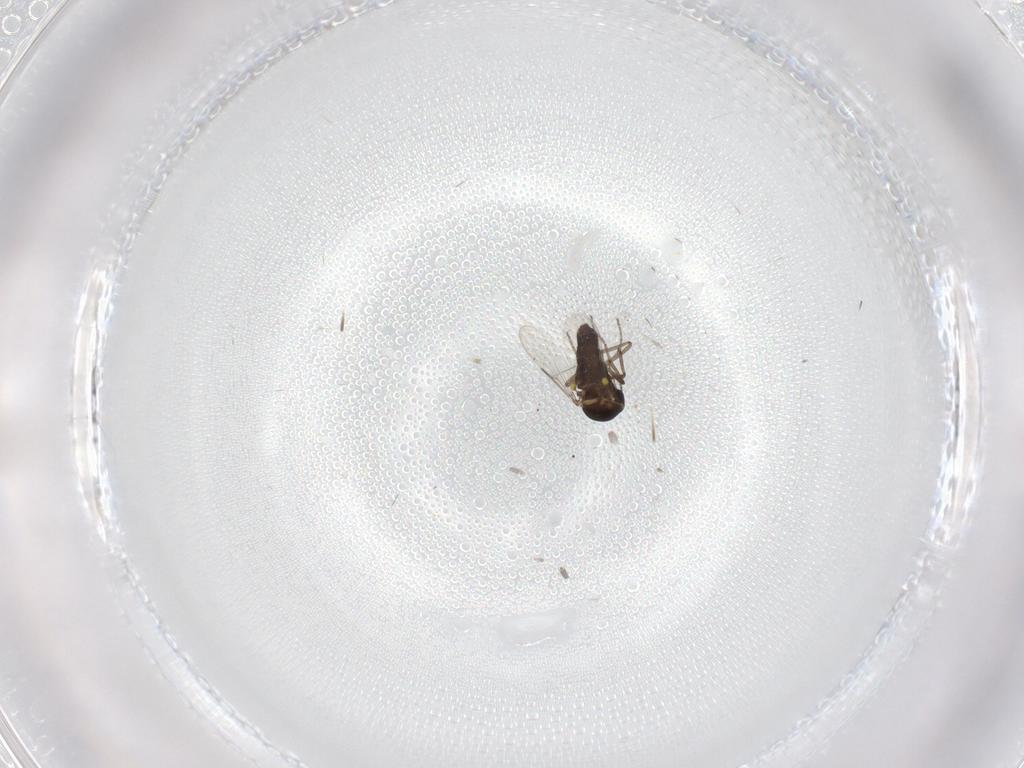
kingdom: Animalia
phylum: Arthropoda
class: Insecta
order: Diptera
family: Ceratopogonidae
